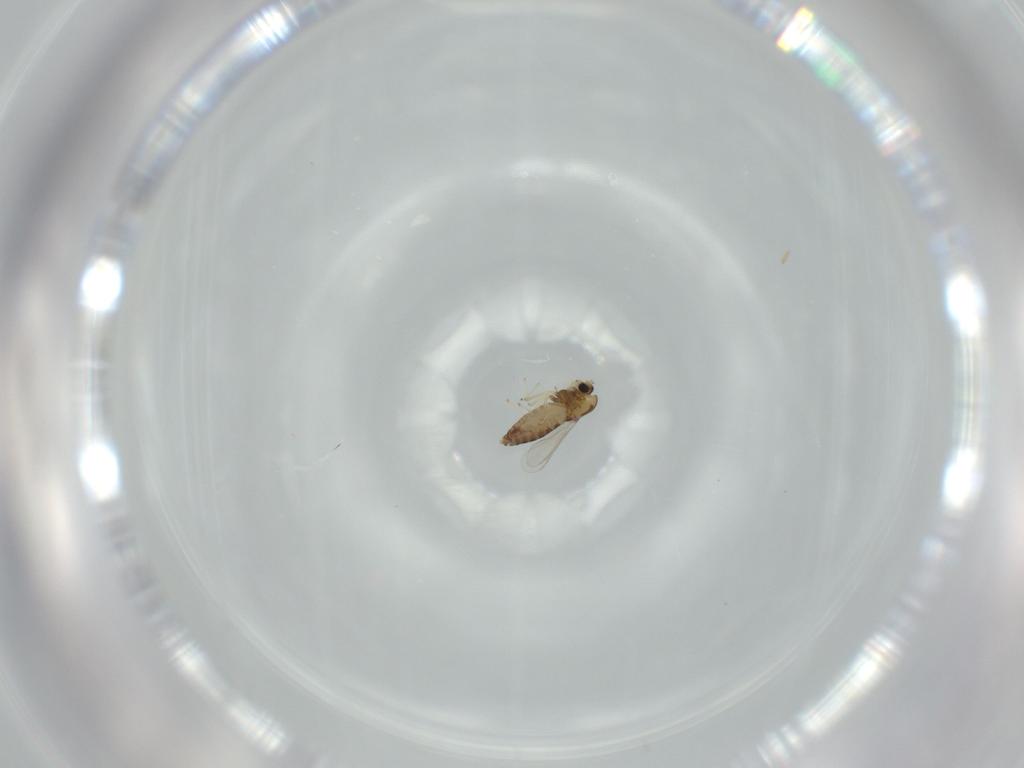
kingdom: Animalia
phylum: Arthropoda
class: Insecta
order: Diptera
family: Chironomidae
